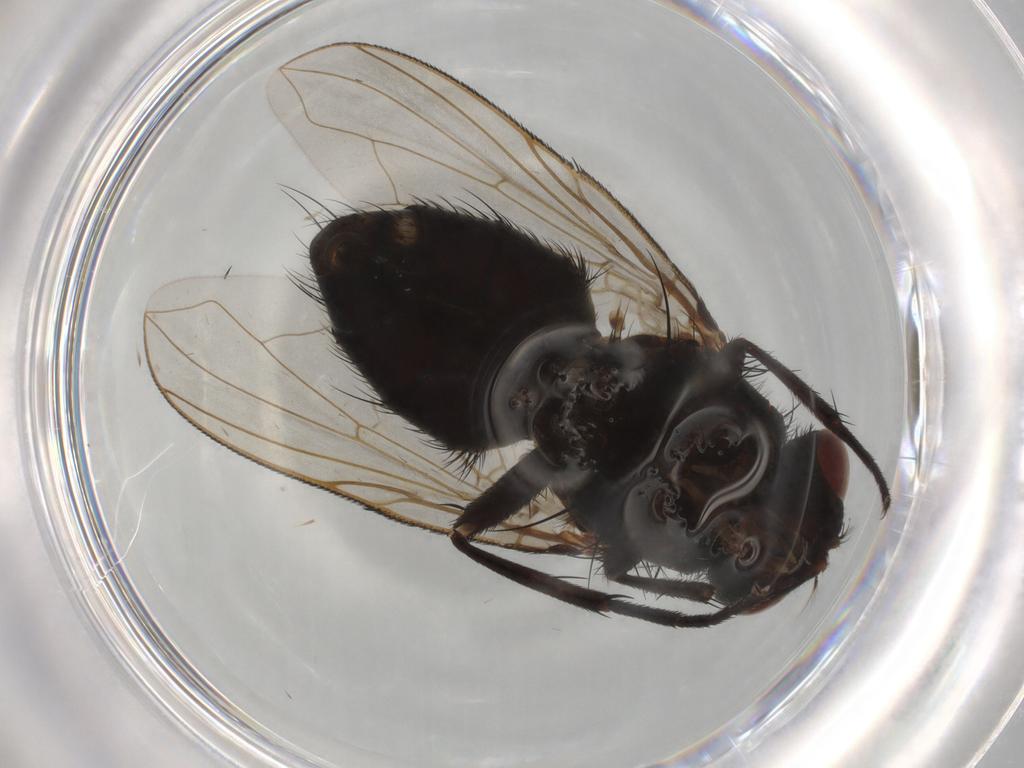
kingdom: Animalia
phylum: Arthropoda
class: Insecta
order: Diptera
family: Calliphoridae
